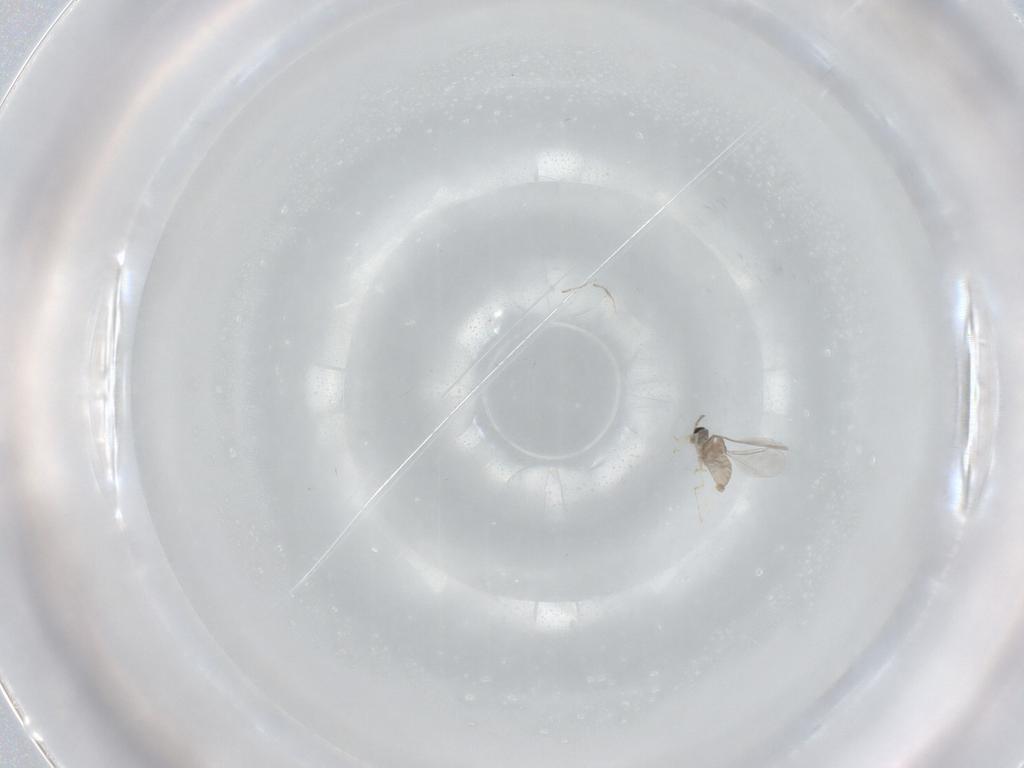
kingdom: Animalia
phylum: Arthropoda
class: Insecta
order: Diptera
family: Cecidomyiidae
